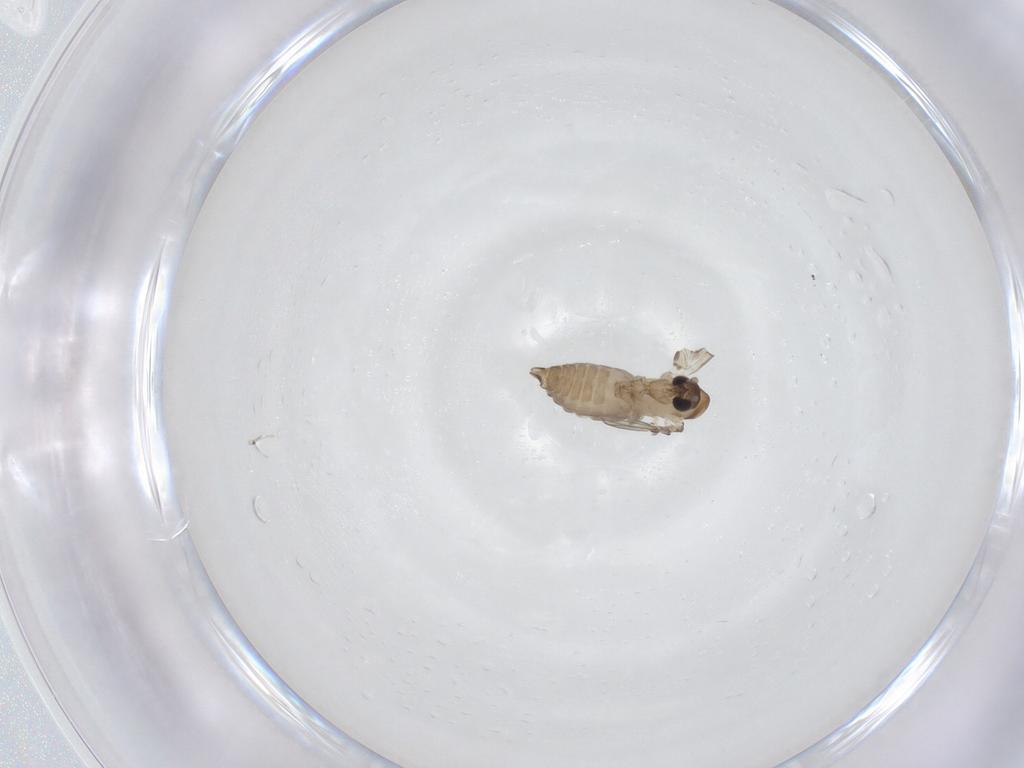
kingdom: Animalia
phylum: Arthropoda
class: Insecta
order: Diptera
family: Psychodidae
